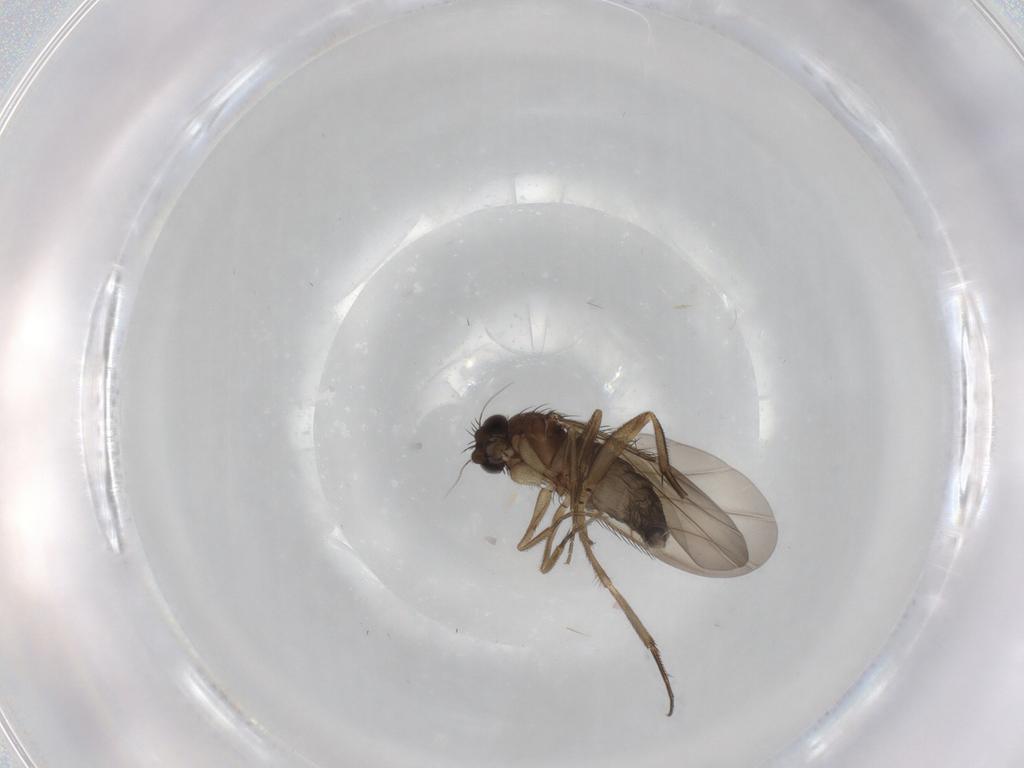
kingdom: Animalia
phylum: Arthropoda
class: Insecta
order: Diptera
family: Phoridae
